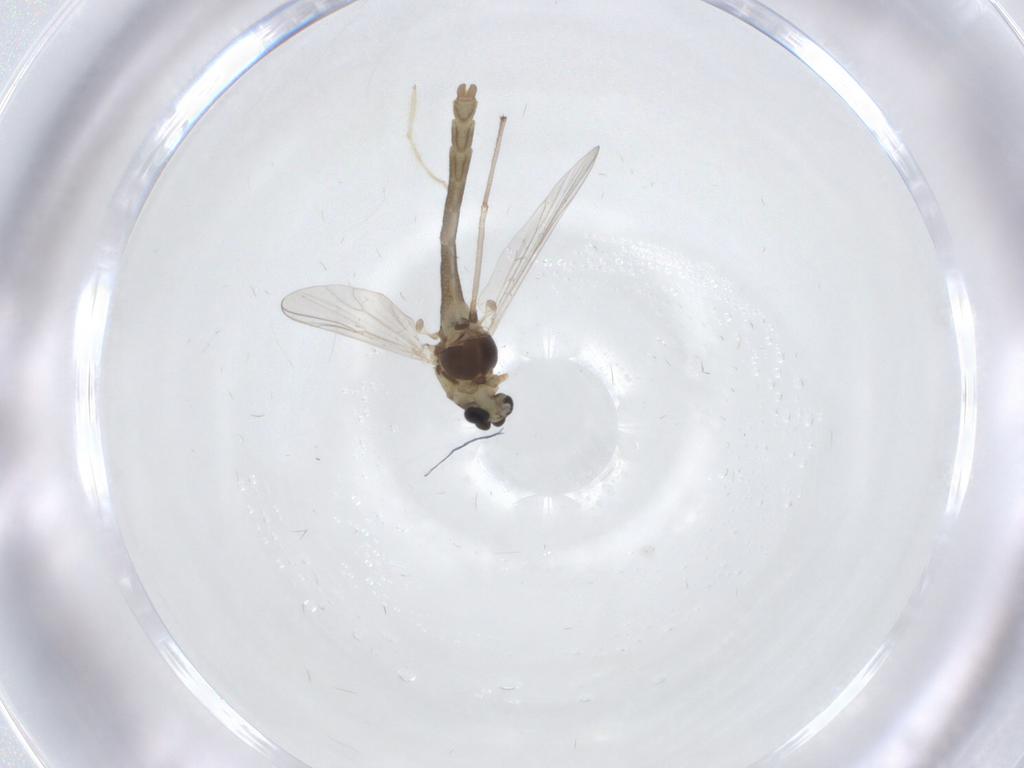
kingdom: Animalia
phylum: Arthropoda
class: Insecta
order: Diptera
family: Chironomidae
